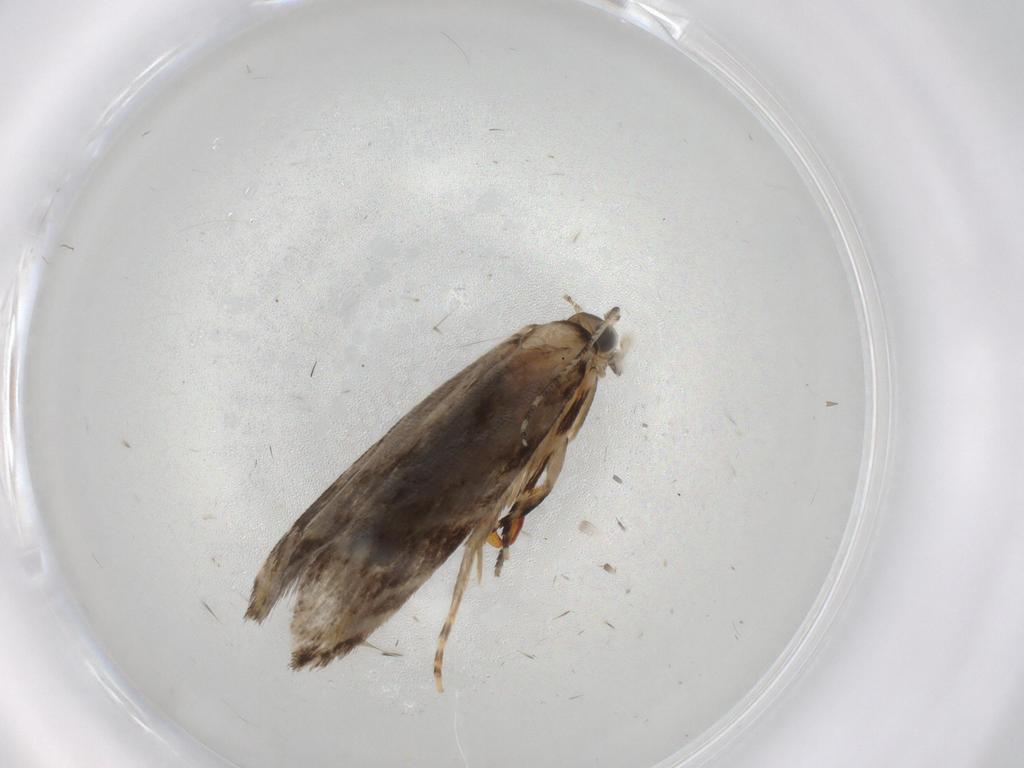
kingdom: Animalia
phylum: Arthropoda
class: Insecta
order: Lepidoptera
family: Tineidae
